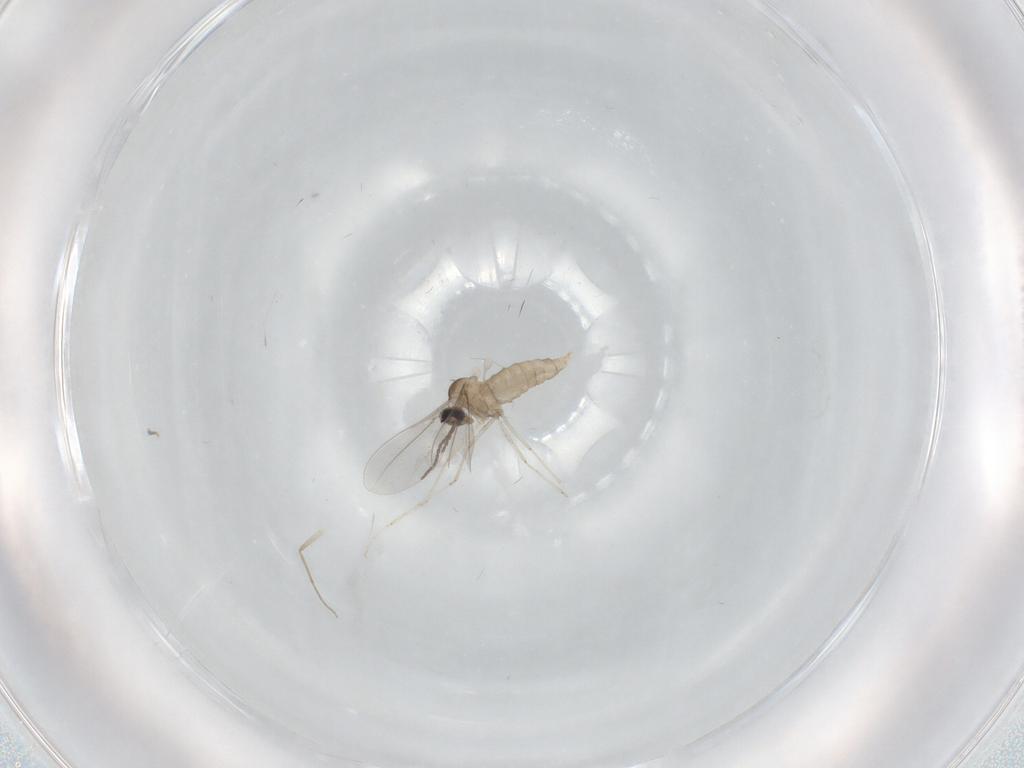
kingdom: Animalia
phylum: Arthropoda
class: Insecta
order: Diptera
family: Cecidomyiidae
